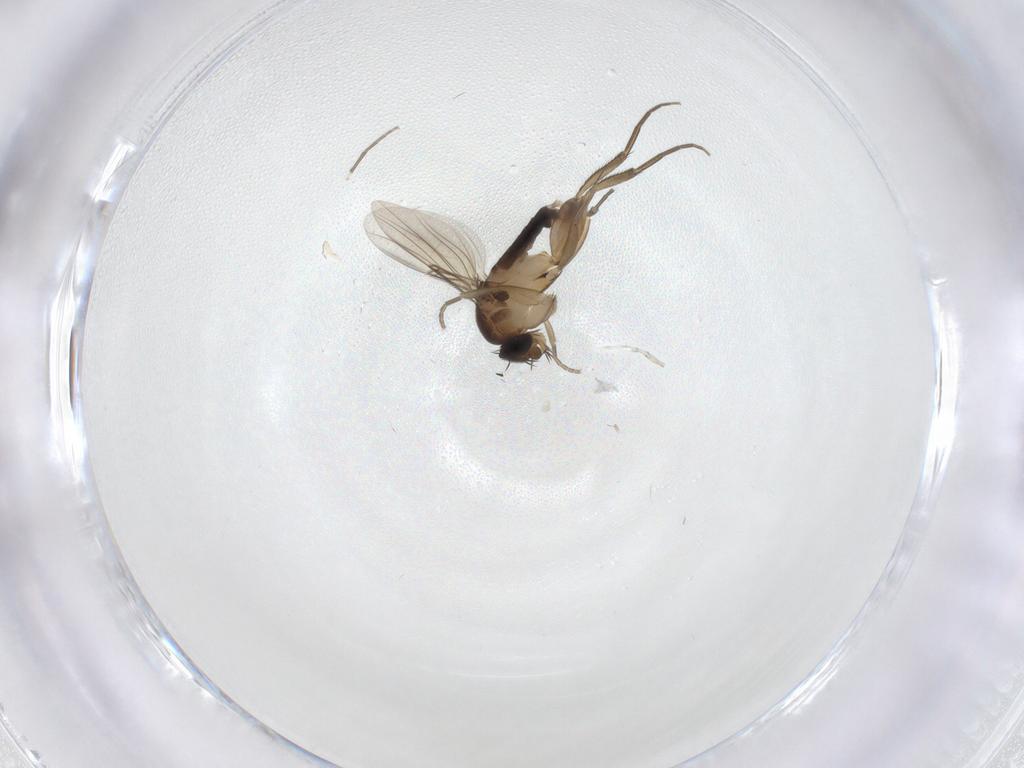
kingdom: Animalia
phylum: Arthropoda
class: Insecta
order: Diptera
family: Phoridae
